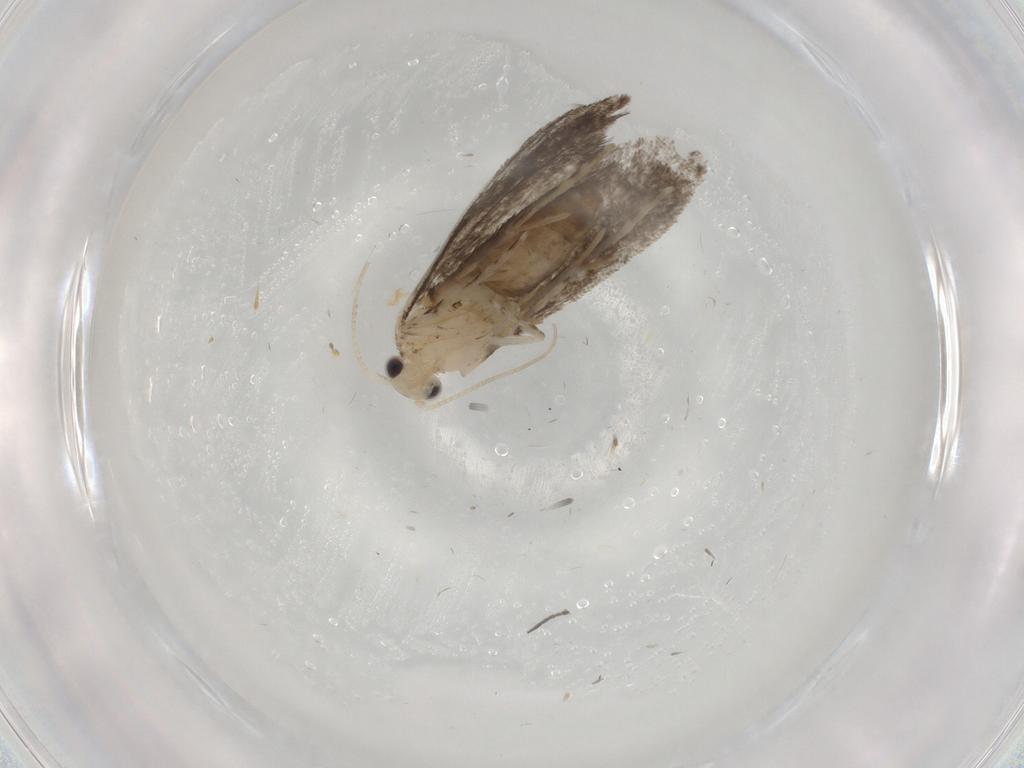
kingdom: Animalia
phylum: Arthropoda
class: Insecta
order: Lepidoptera
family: Tineidae
